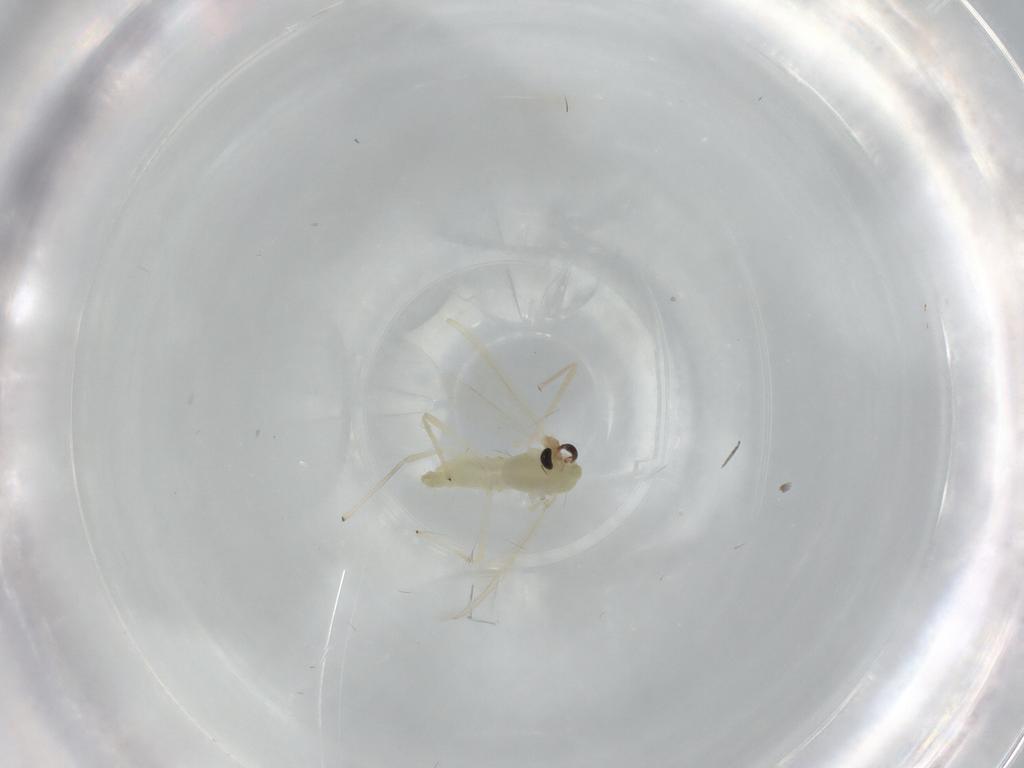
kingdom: Animalia
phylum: Arthropoda
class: Insecta
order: Diptera
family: Chironomidae
